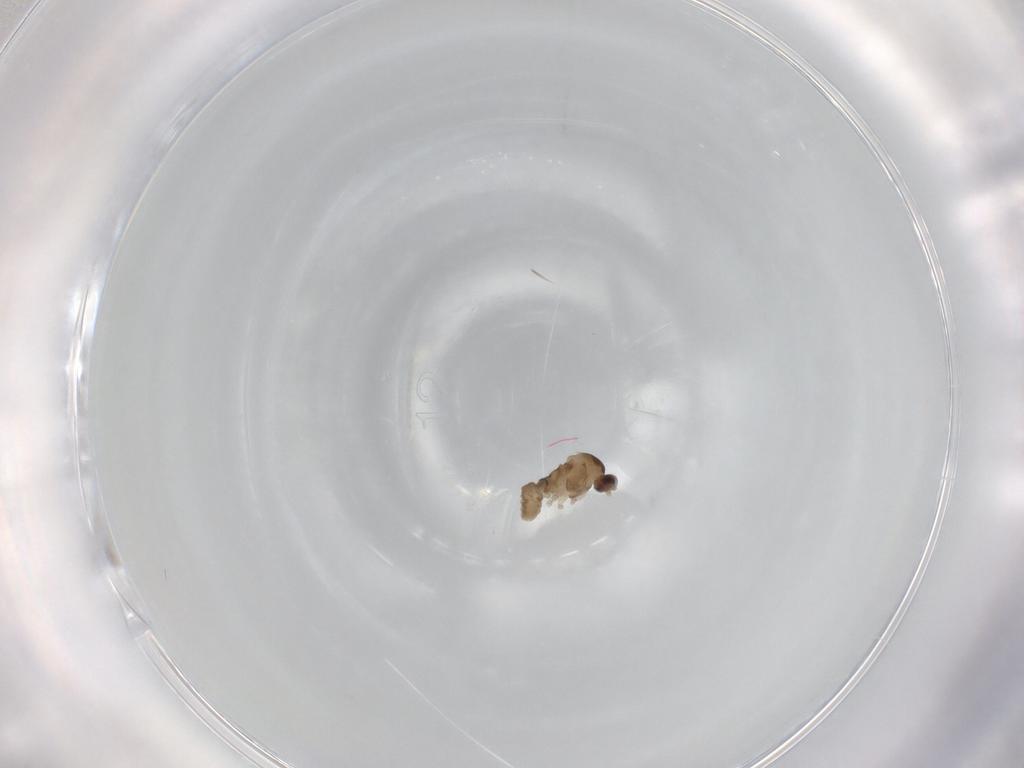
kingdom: Animalia
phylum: Arthropoda
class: Insecta
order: Diptera
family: Cecidomyiidae
